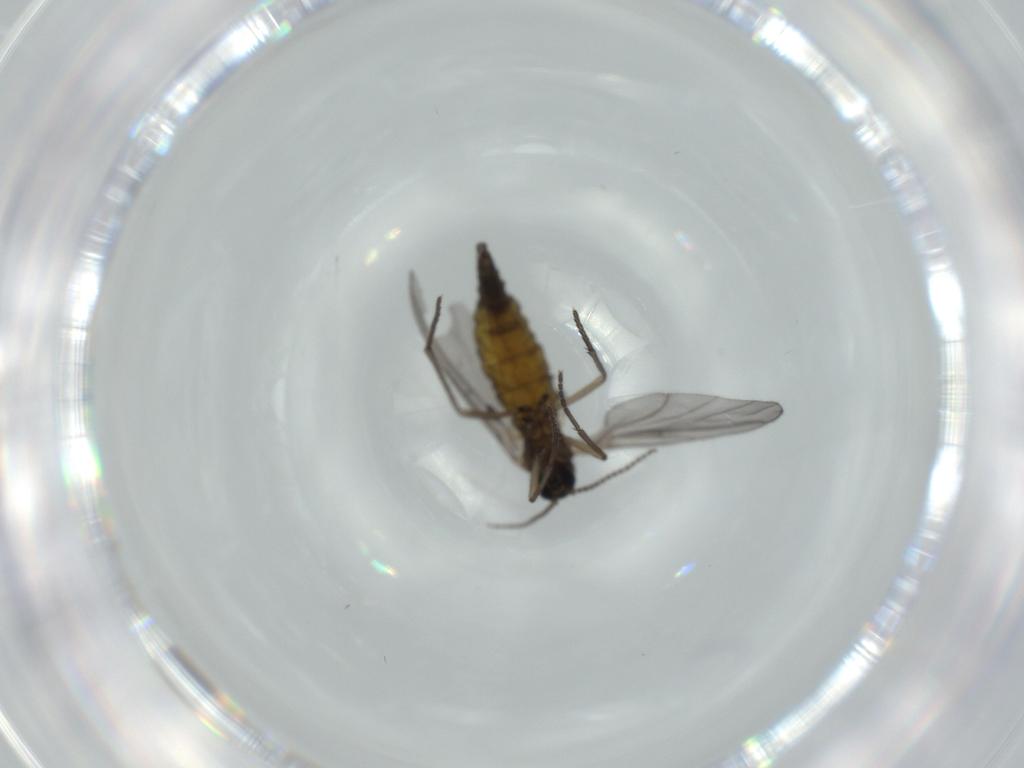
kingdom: Animalia
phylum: Arthropoda
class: Insecta
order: Diptera
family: Sciaridae
